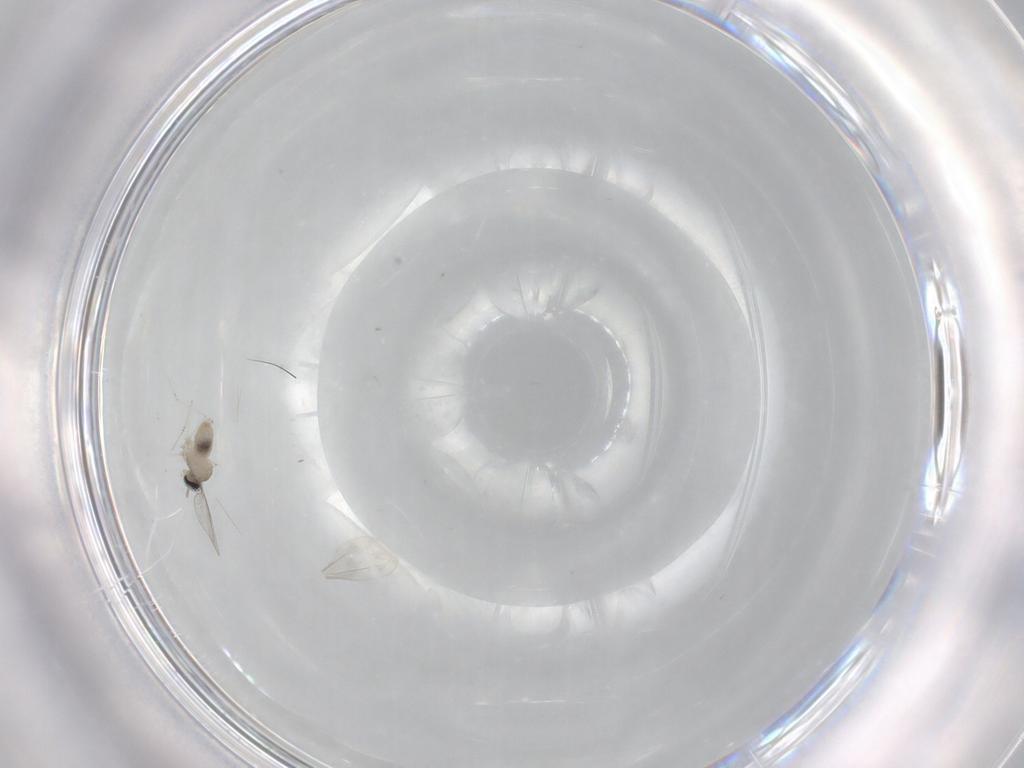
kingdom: Animalia
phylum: Arthropoda
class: Insecta
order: Diptera
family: Cecidomyiidae
